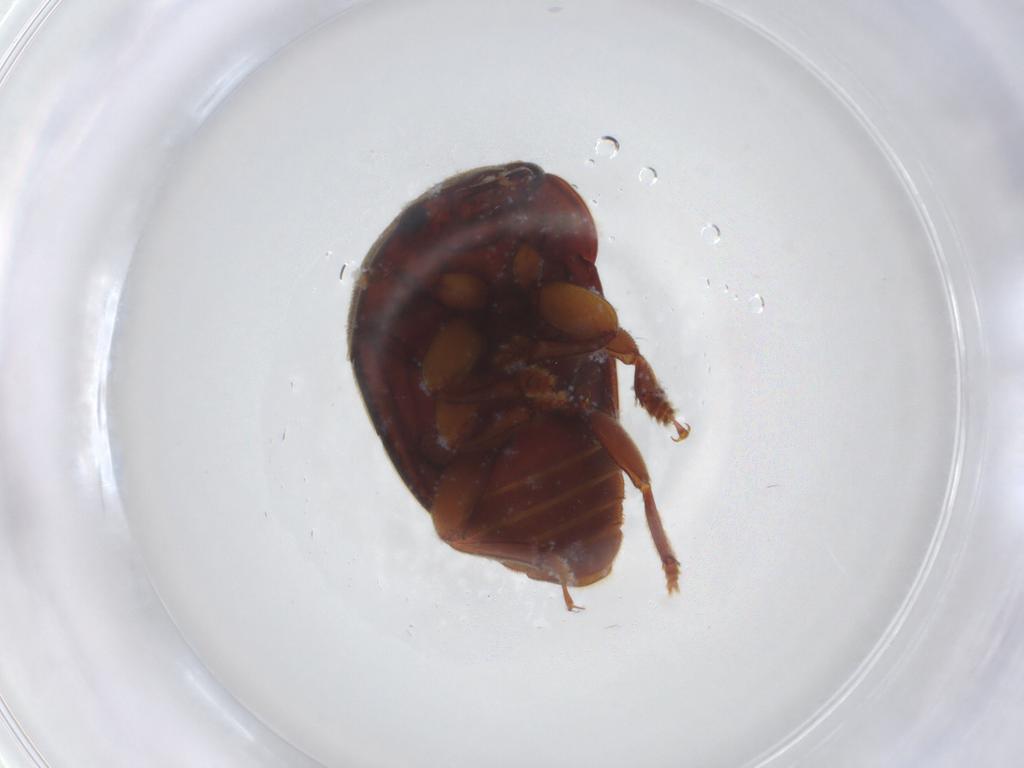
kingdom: Animalia
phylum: Arthropoda
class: Insecta
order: Coleoptera
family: Nitidulidae
